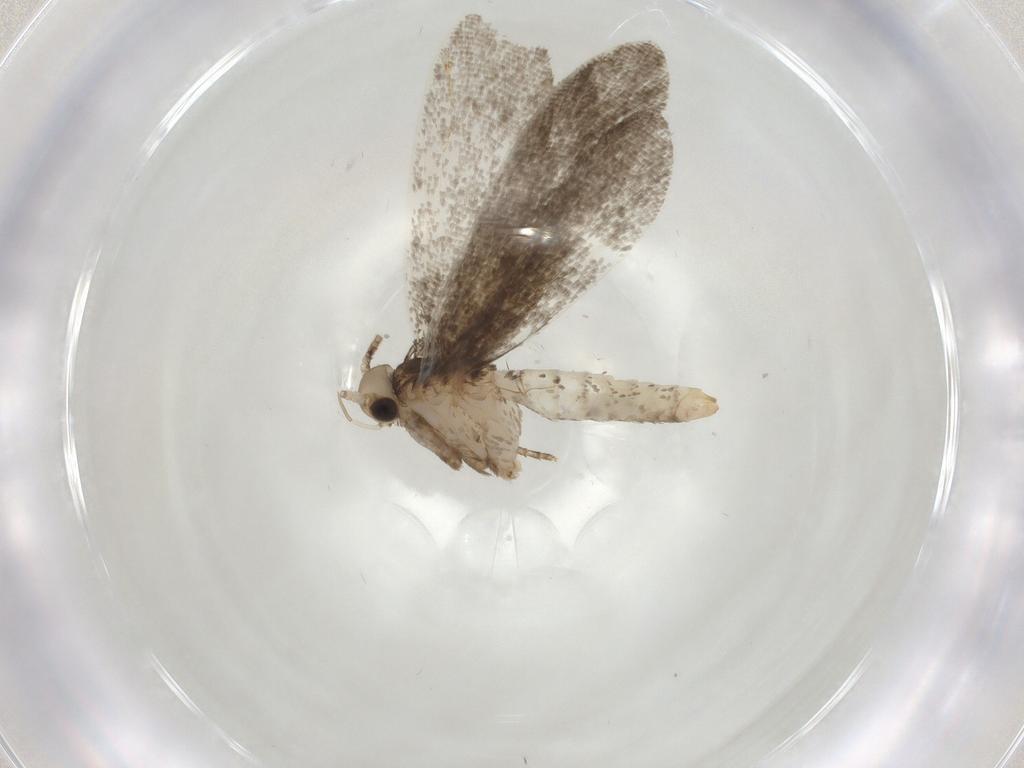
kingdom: Animalia
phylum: Arthropoda
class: Insecta
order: Lepidoptera
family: Nymphalidae
